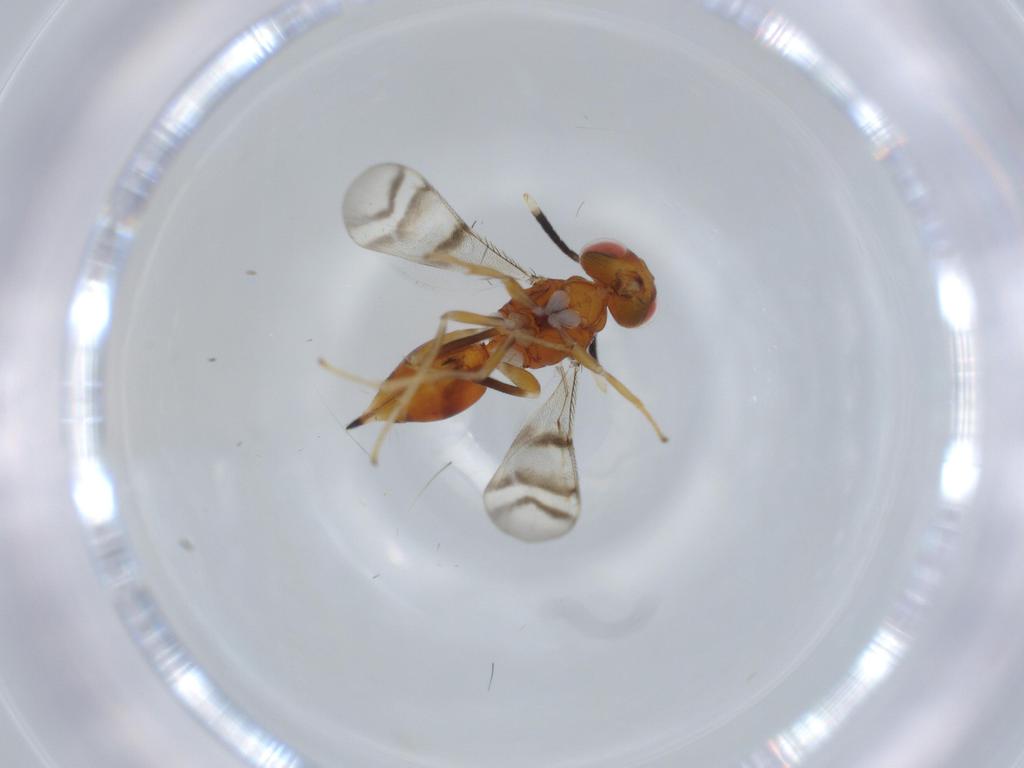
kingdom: Animalia
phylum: Arthropoda
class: Insecta
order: Hymenoptera
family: Diparidae
